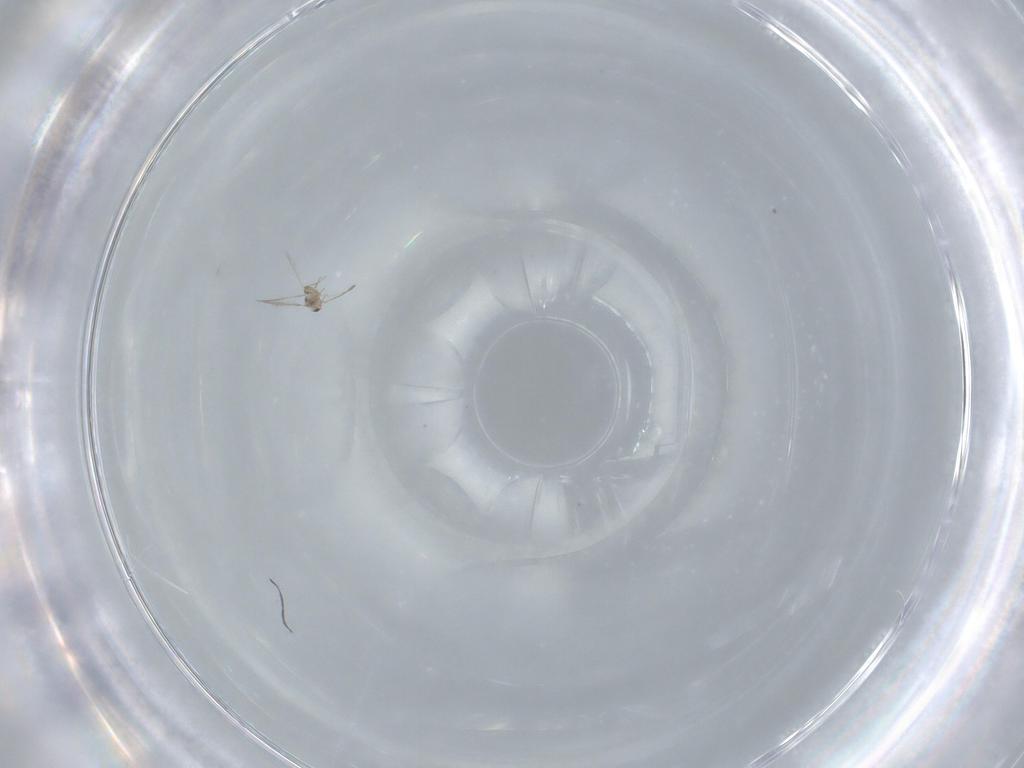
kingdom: Animalia
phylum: Arthropoda
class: Insecta
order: Hymenoptera
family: Mymaridae
